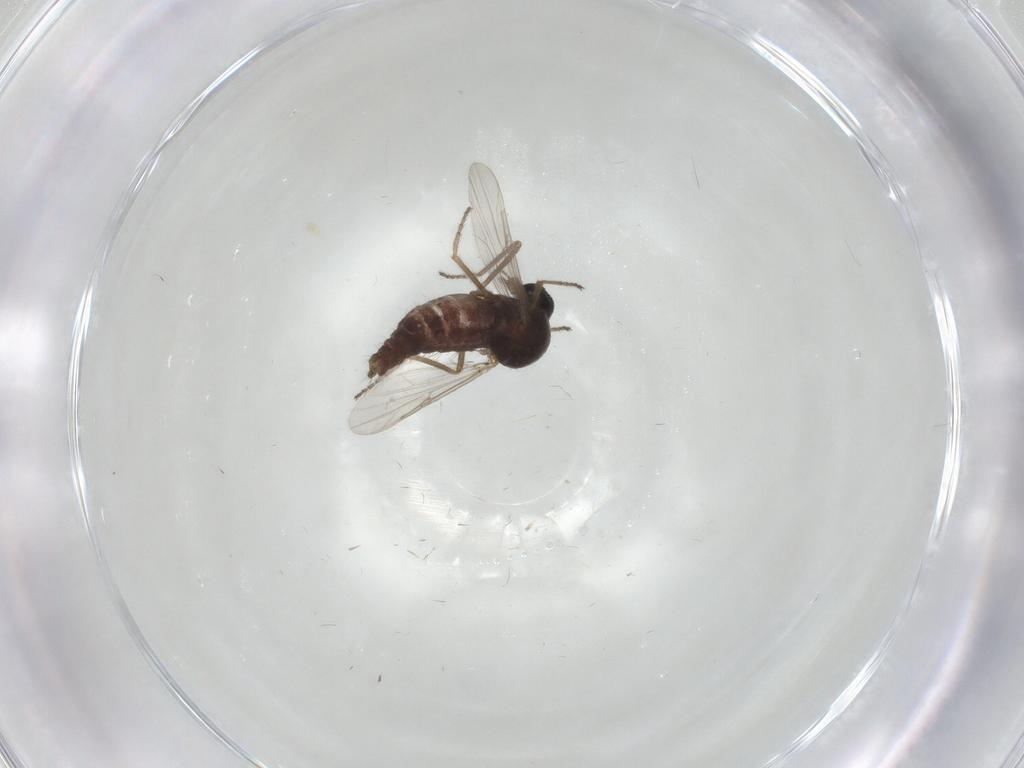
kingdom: Animalia
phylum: Arthropoda
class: Insecta
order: Diptera
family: Ceratopogonidae
